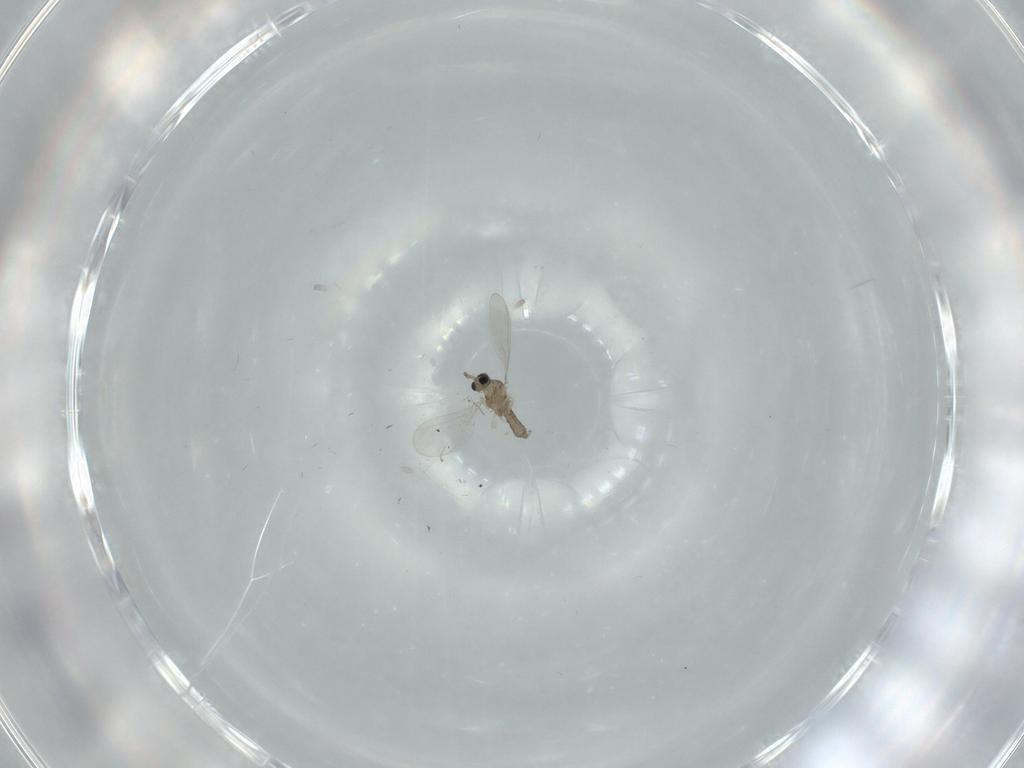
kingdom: Animalia
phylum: Arthropoda
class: Insecta
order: Diptera
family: Cecidomyiidae
